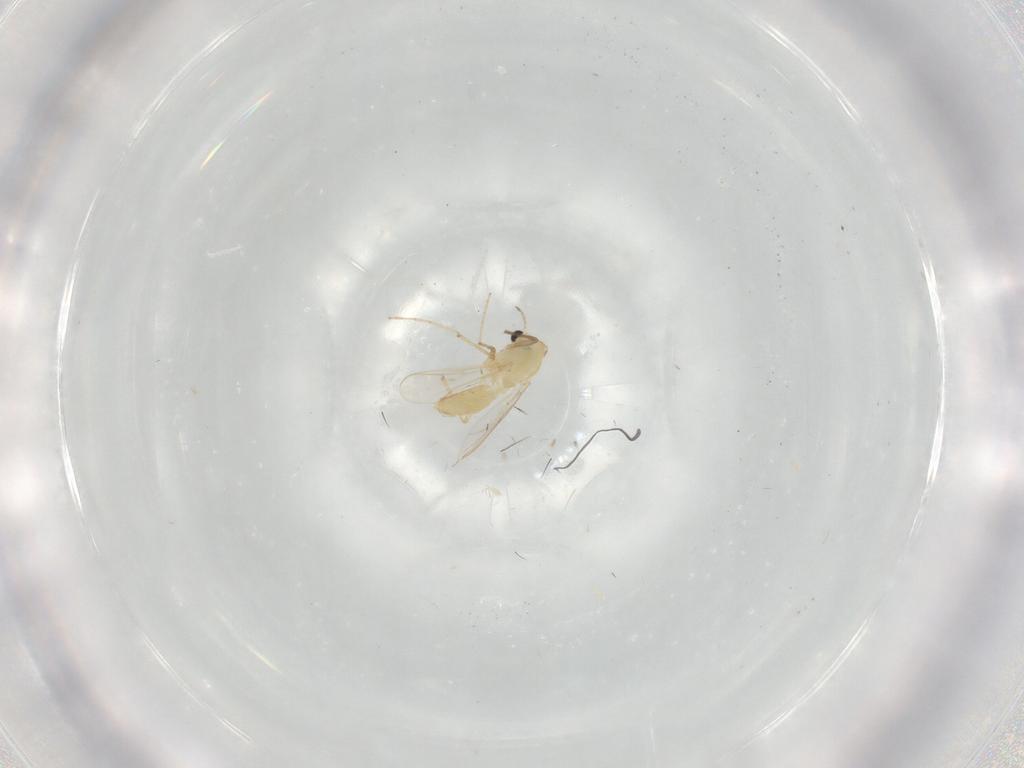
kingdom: Animalia
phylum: Arthropoda
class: Insecta
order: Diptera
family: Chironomidae
